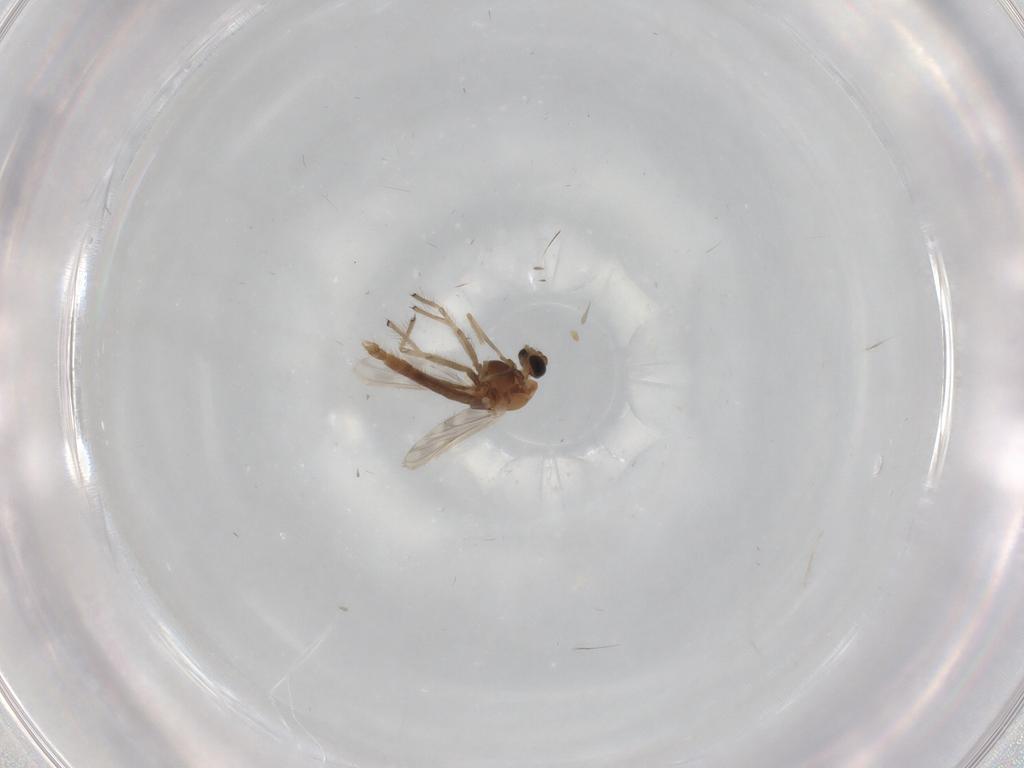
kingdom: Animalia
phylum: Arthropoda
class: Insecta
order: Diptera
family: Chironomidae
